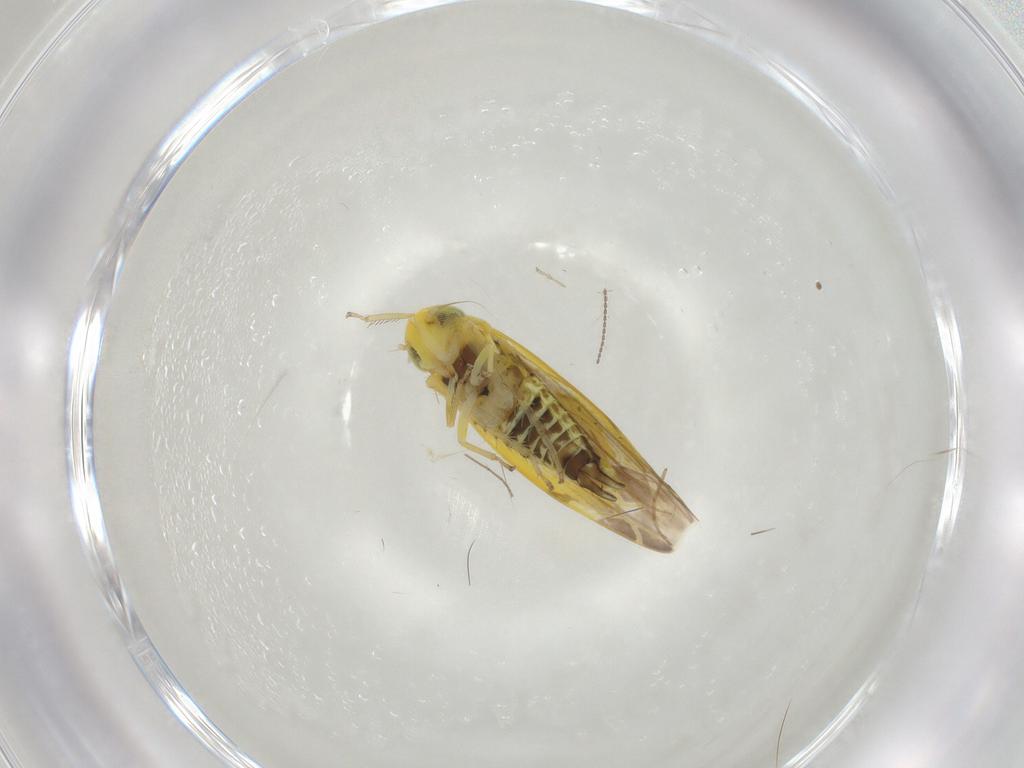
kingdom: Animalia
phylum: Arthropoda
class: Insecta
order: Hemiptera
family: Cicadellidae
